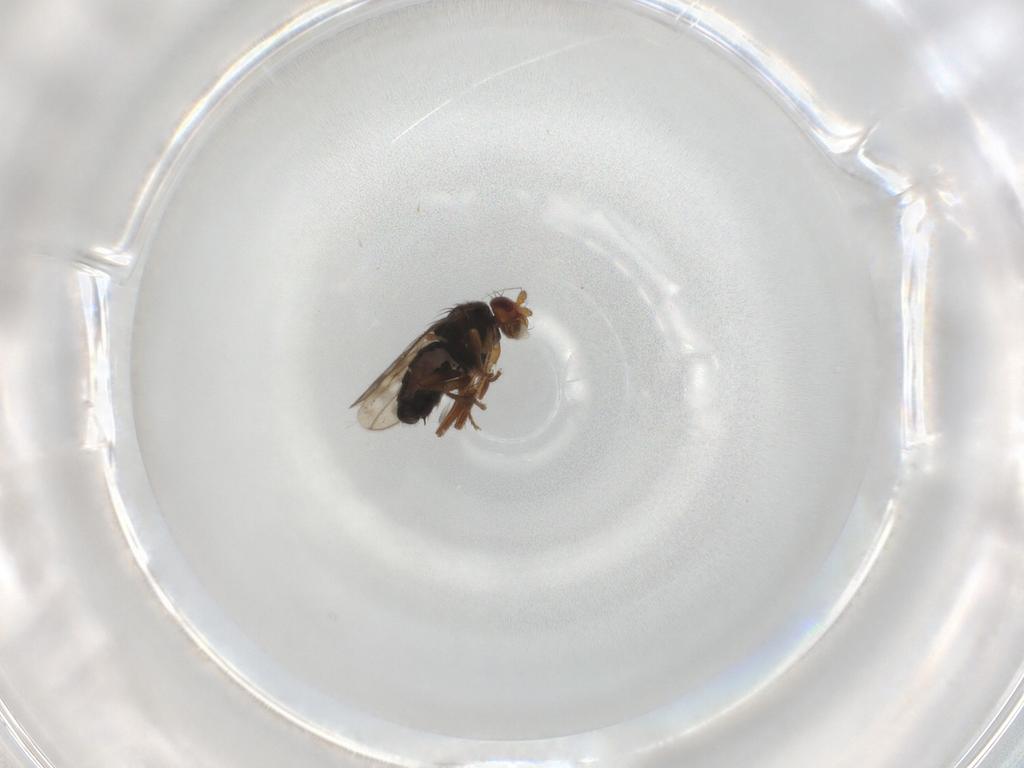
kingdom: Animalia
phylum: Arthropoda
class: Insecta
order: Diptera
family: Sphaeroceridae
